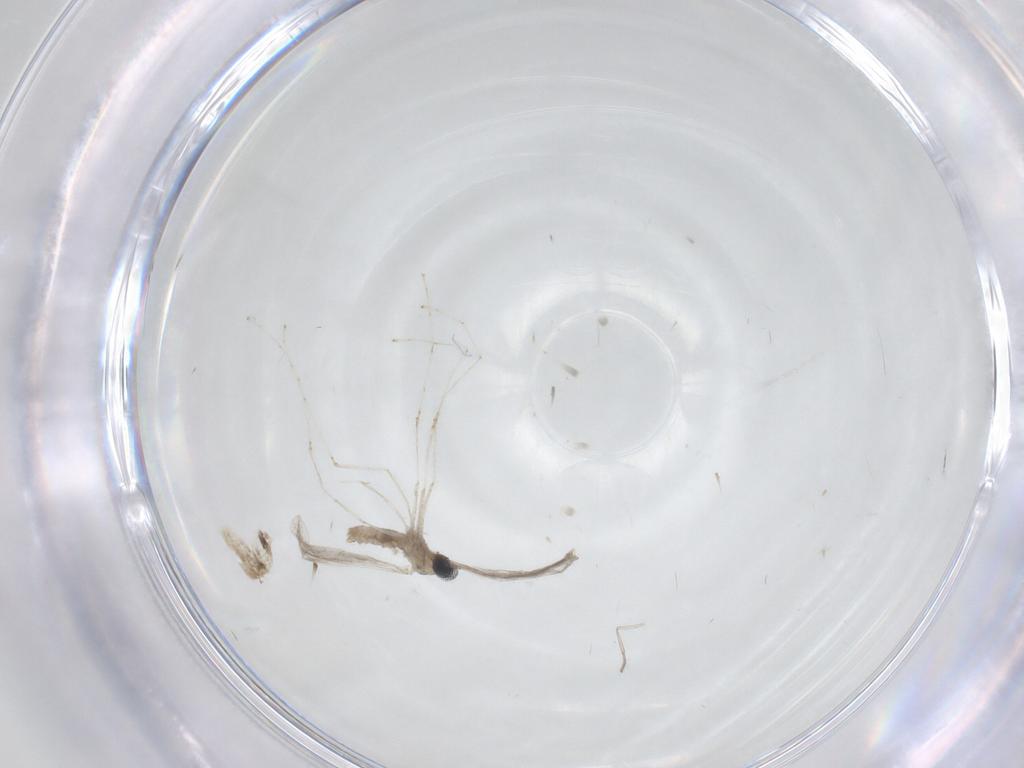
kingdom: Animalia
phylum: Arthropoda
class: Insecta
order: Diptera
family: Cecidomyiidae
